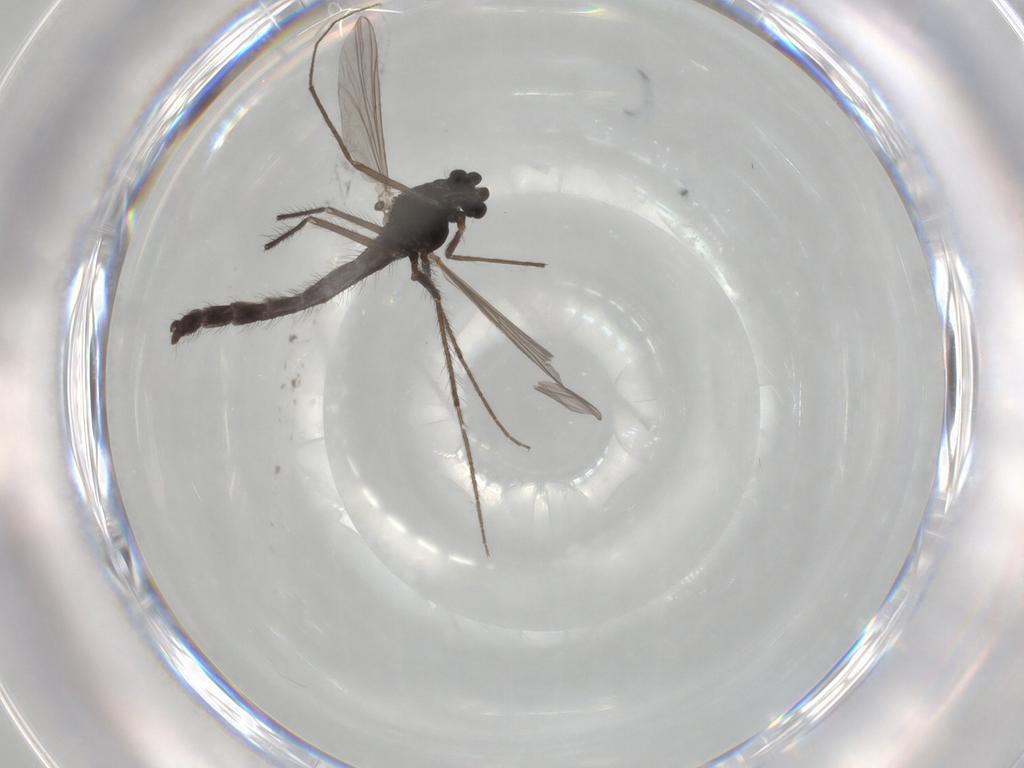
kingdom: Animalia
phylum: Arthropoda
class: Insecta
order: Diptera
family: Chironomidae
